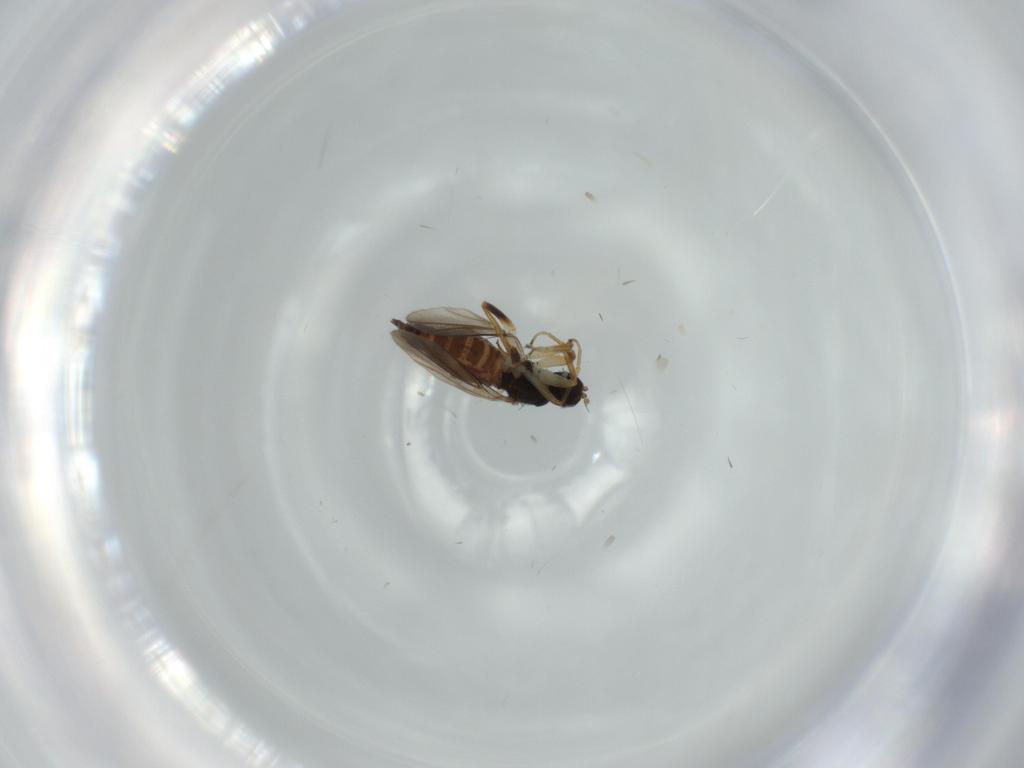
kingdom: Animalia
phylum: Arthropoda
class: Insecta
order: Diptera
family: Hybotidae
